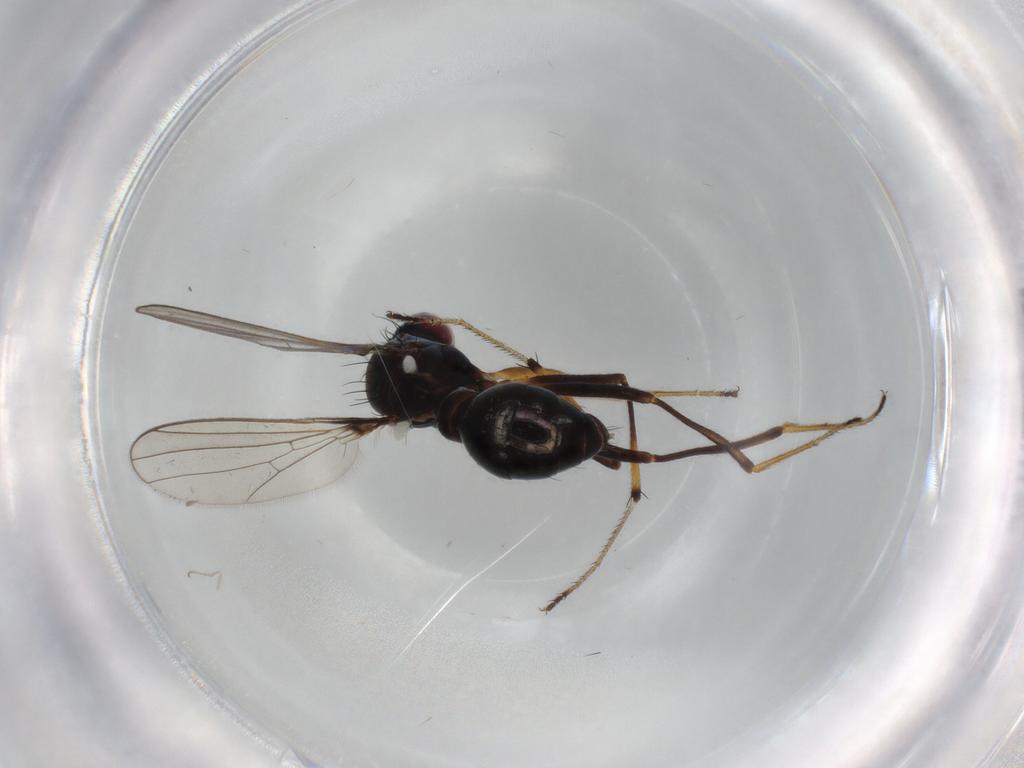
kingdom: Animalia
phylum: Arthropoda
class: Insecta
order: Diptera
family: Sepsidae
